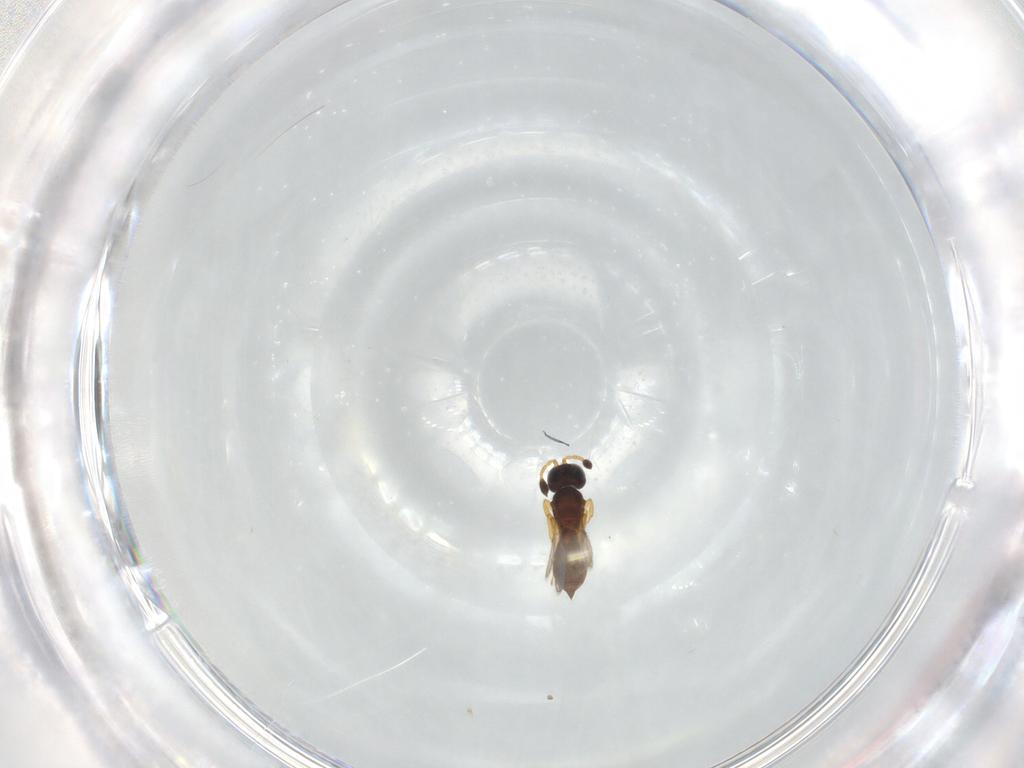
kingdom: Animalia
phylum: Arthropoda
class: Insecta
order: Hymenoptera
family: Scelionidae
